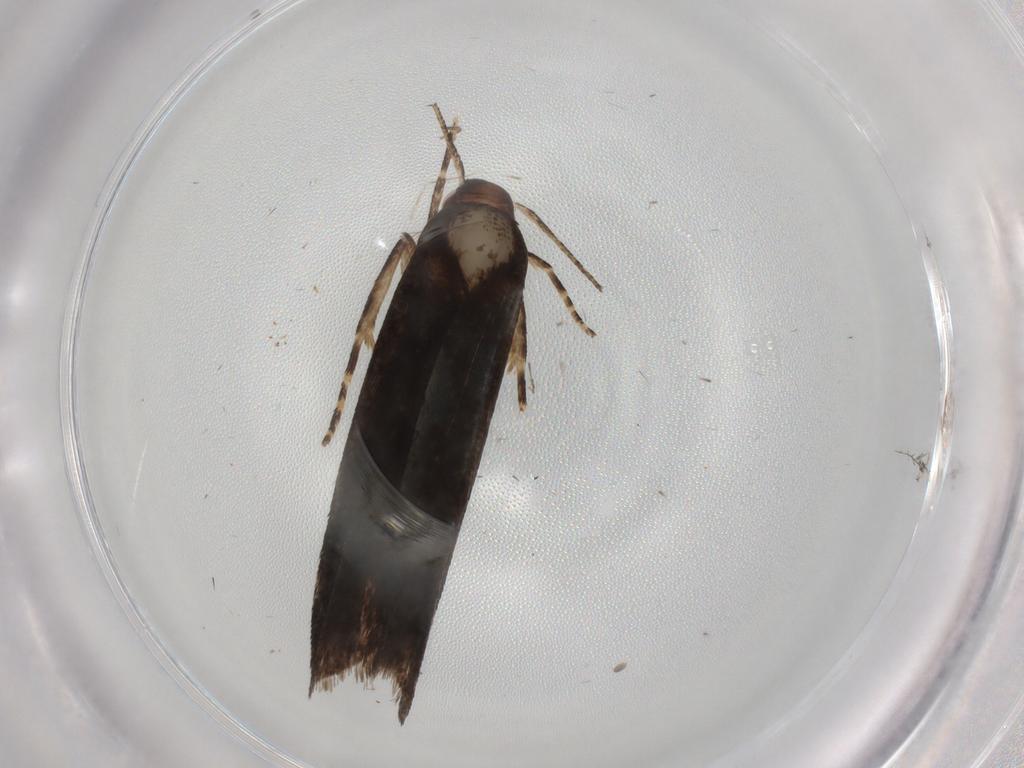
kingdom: Animalia
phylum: Arthropoda
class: Insecta
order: Lepidoptera
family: Gelechiidae
